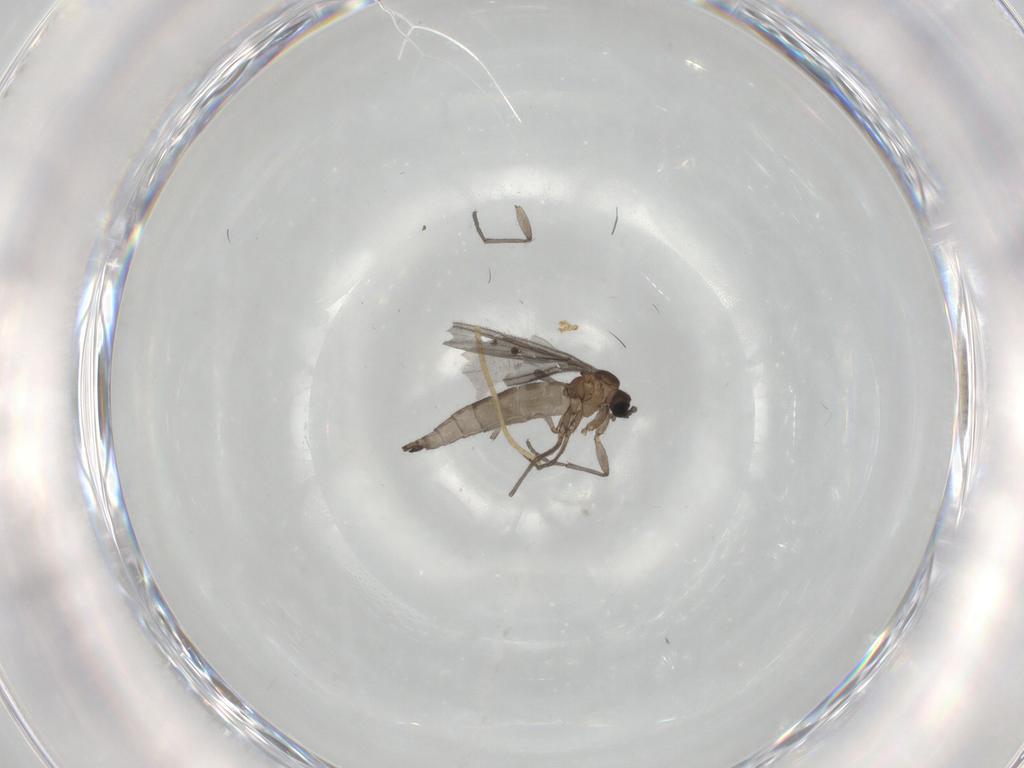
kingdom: Animalia
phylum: Arthropoda
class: Insecta
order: Diptera
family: Sciaridae
